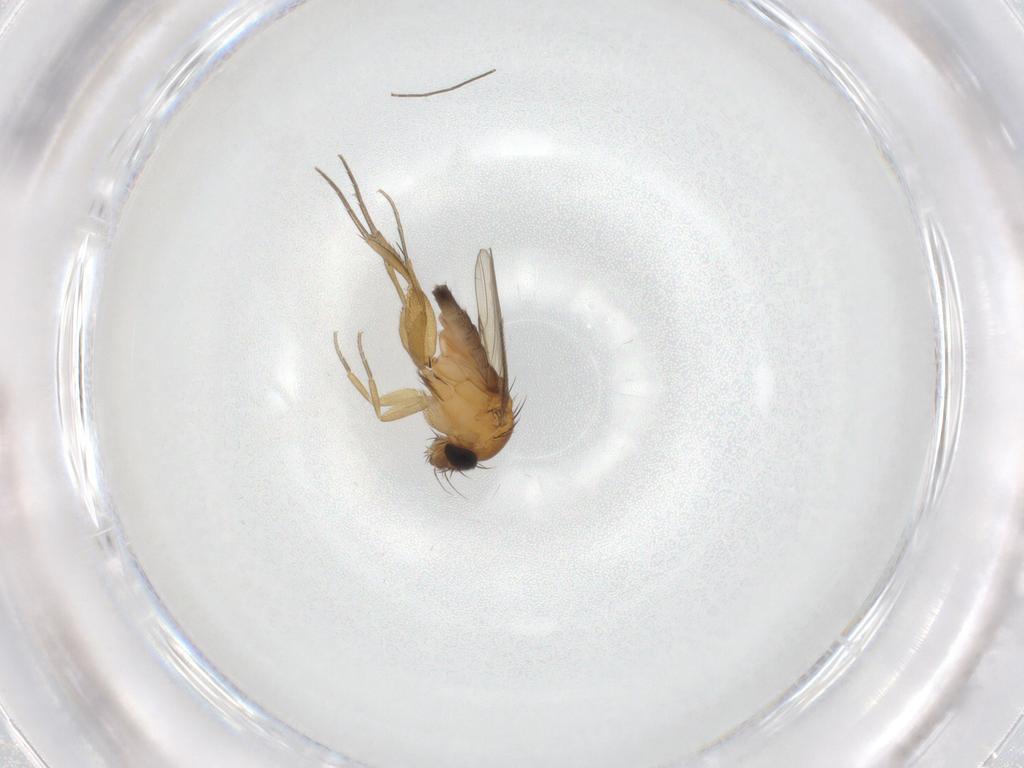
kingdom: Animalia
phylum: Arthropoda
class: Insecta
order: Diptera
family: Phoridae
